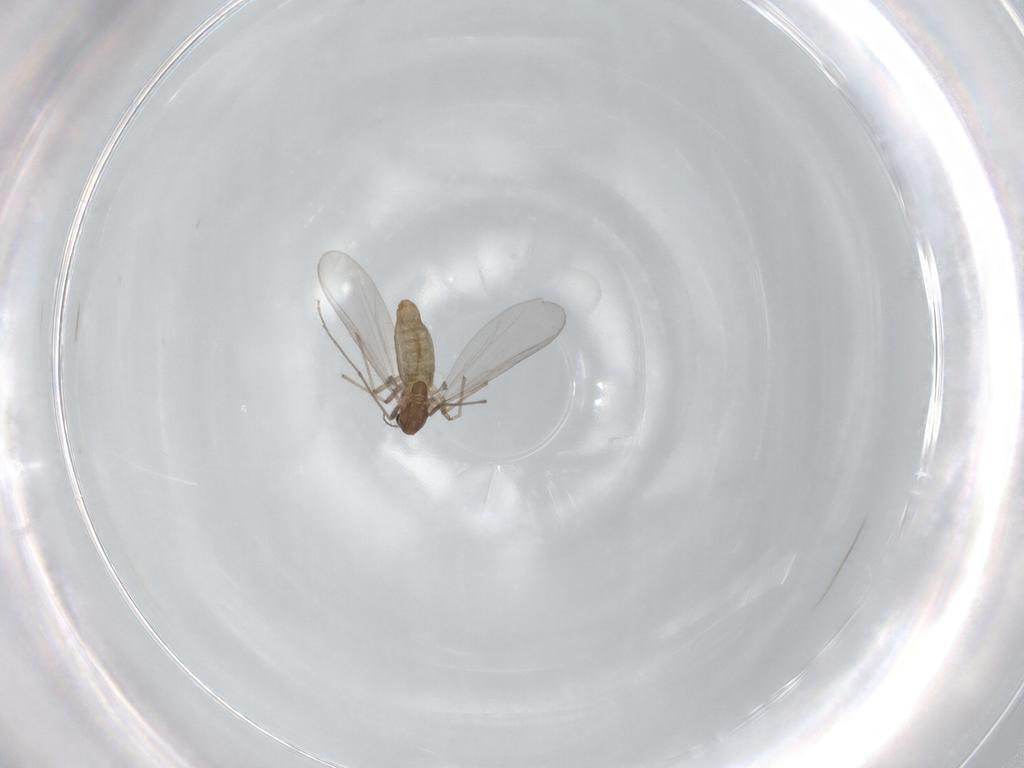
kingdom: Animalia
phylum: Arthropoda
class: Insecta
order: Diptera
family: Chironomidae
